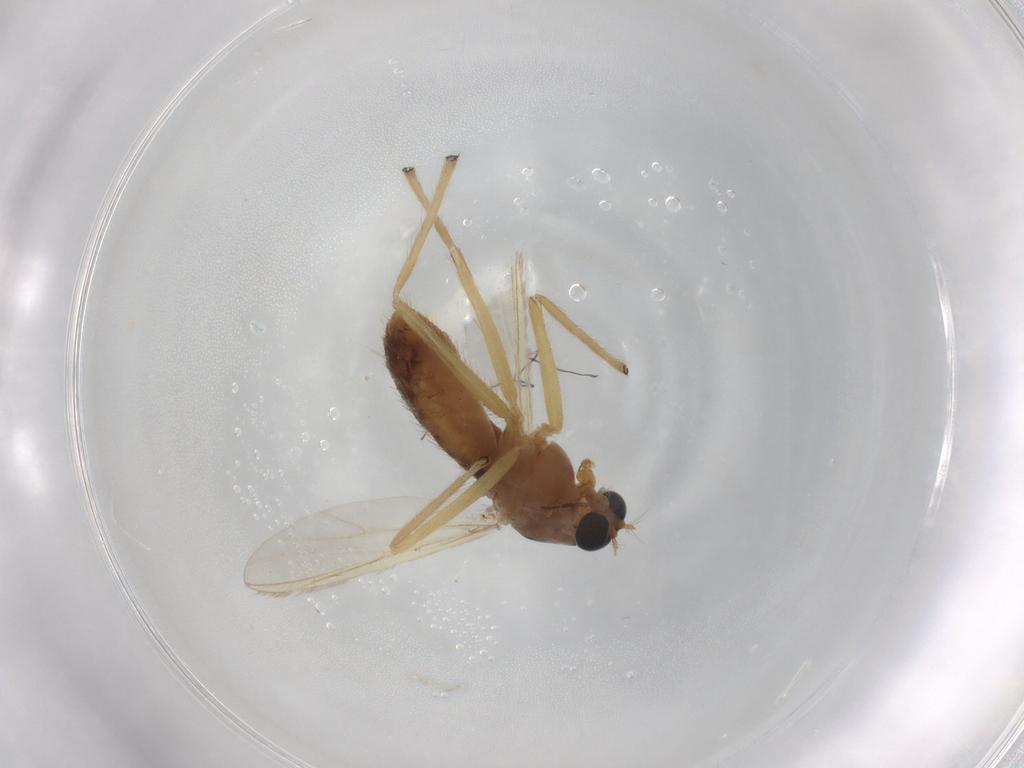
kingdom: Animalia
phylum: Arthropoda
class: Insecta
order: Diptera
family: Chironomidae
